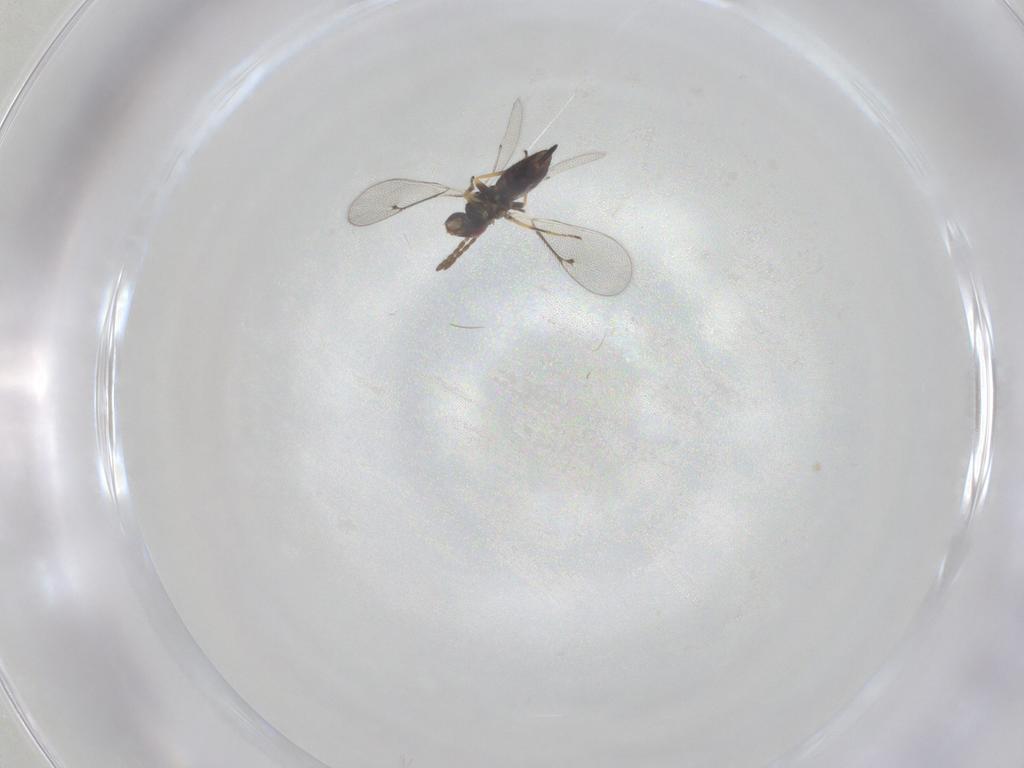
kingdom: Animalia
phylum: Arthropoda
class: Insecta
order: Hymenoptera
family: Eulophidae
